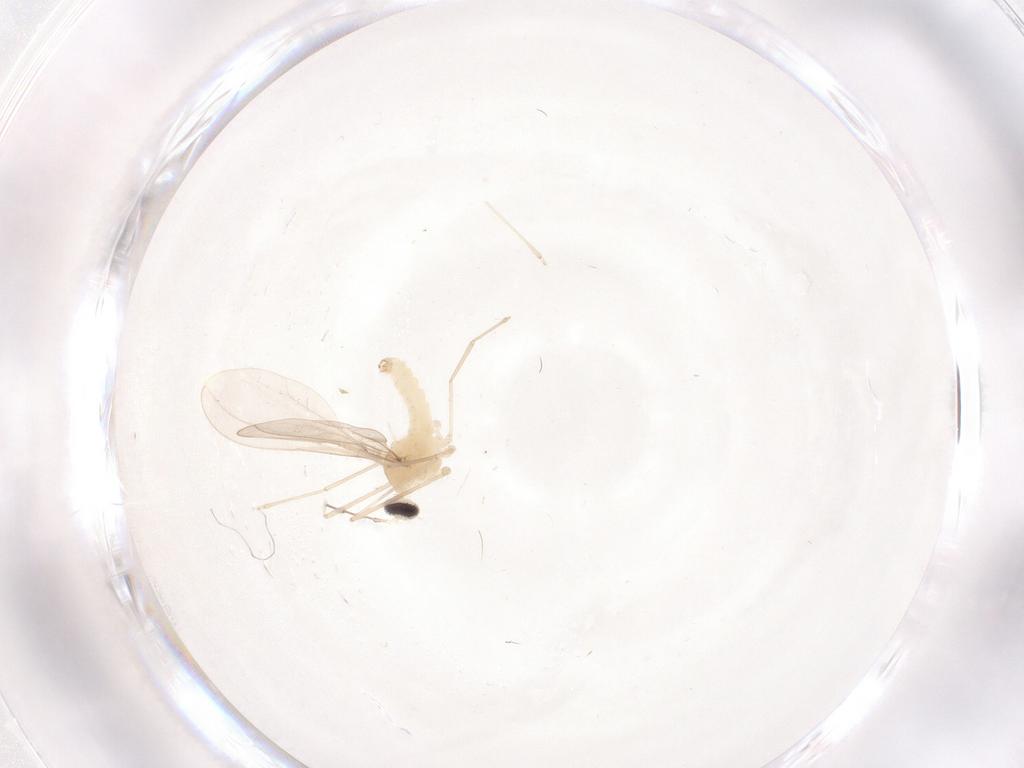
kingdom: Animalia
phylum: Arthropoda
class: Insecta
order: Diptera
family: Cecidomyiidae
